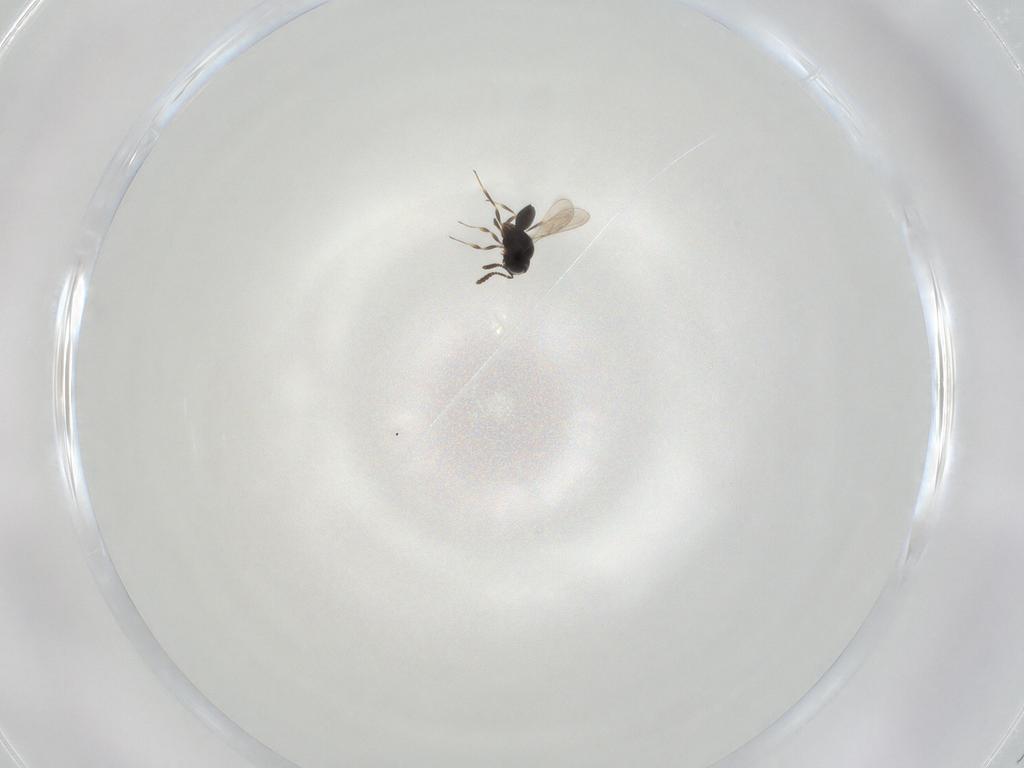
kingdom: Animalia
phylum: Arthropoda
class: Insecta
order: Hymenoptera
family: Scelionidae
